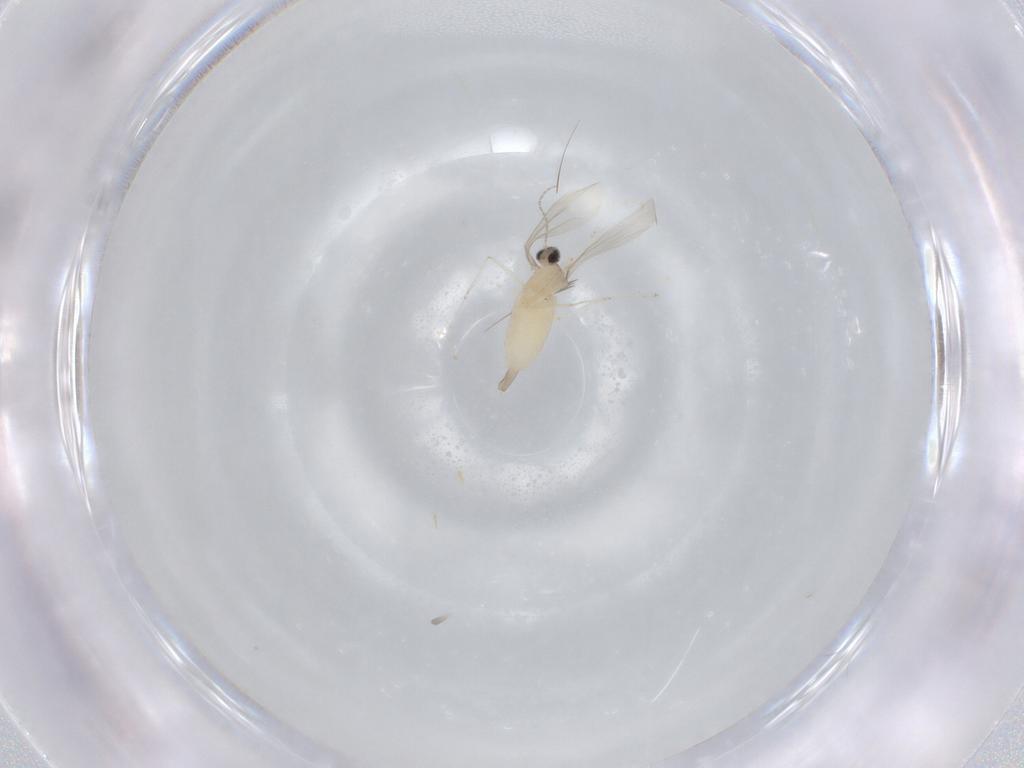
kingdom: Animalia
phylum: Arthropoda
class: Insecta
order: Diptera
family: Cecidomyiidae
